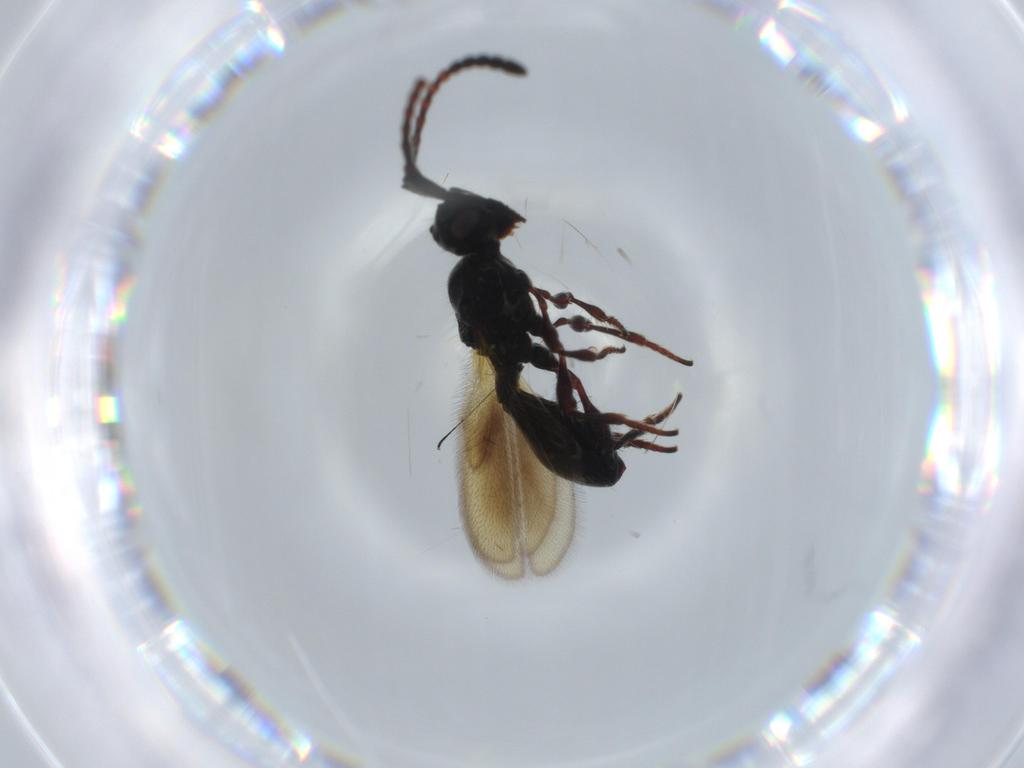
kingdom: Animalia
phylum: Arthropoda
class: Insecta
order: Hymenoptera
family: Diapriidae
